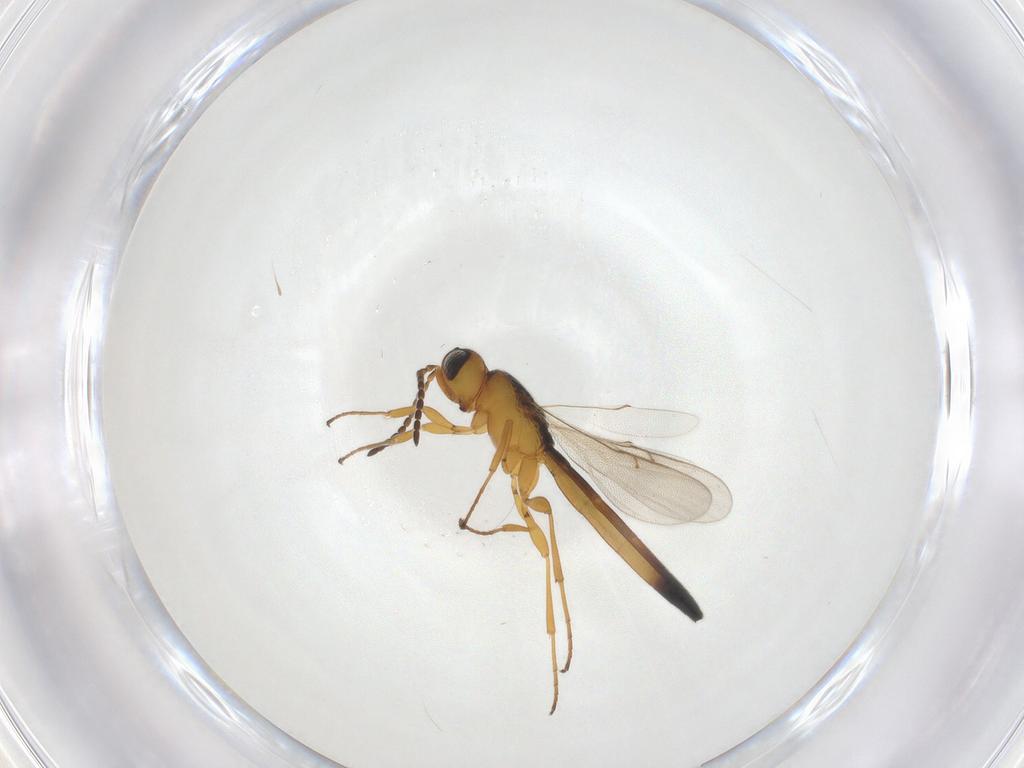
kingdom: Animalia
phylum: Arthropoda
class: Insecta
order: Hymenoptera
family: Scelionidae
